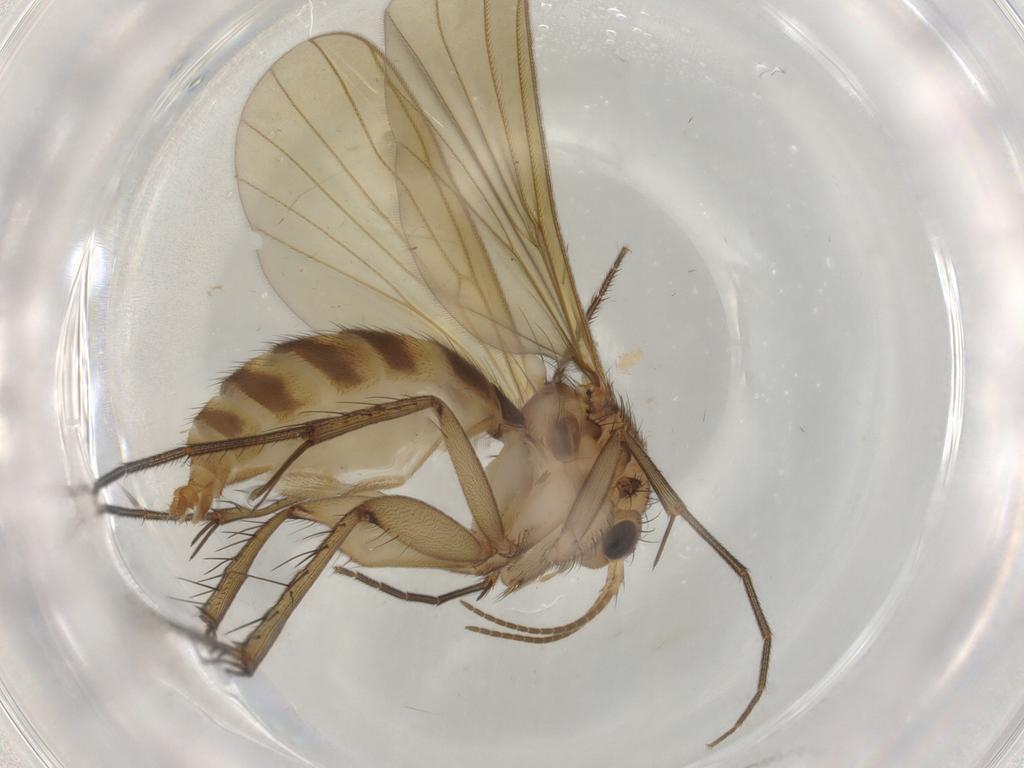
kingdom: Animalia
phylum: Arthropoda
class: Insecta
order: Diptera
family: Mycetophilidae
